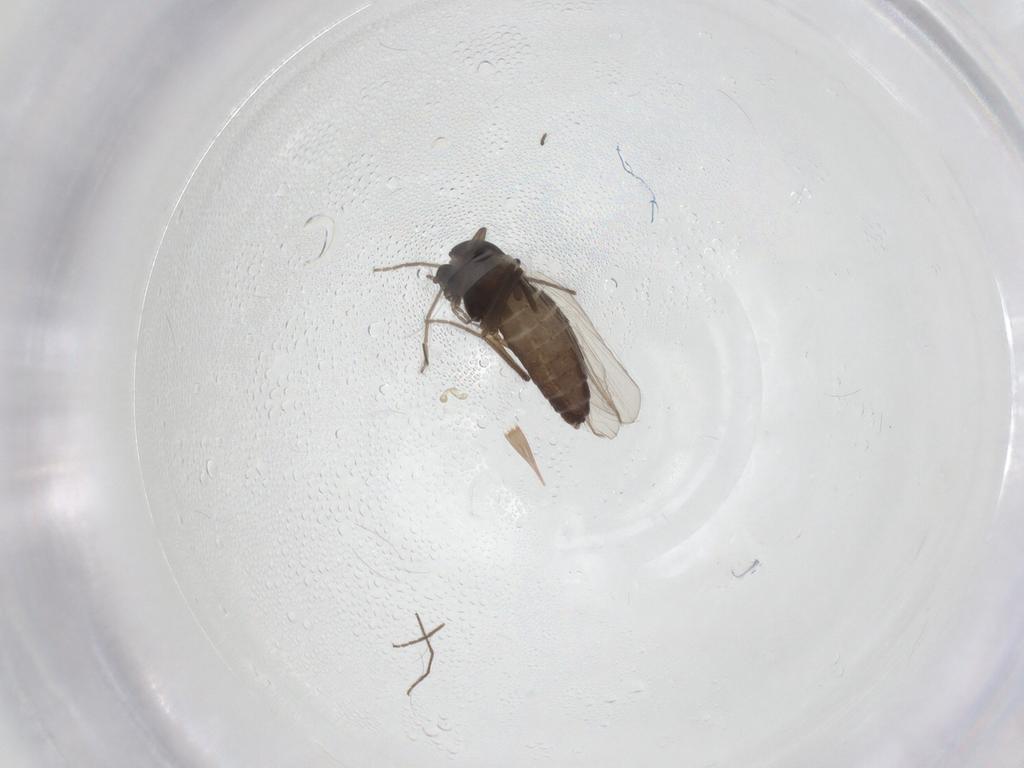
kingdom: Animalia
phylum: Arthropoda
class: Insecta
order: Diptera
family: Chironomidae
